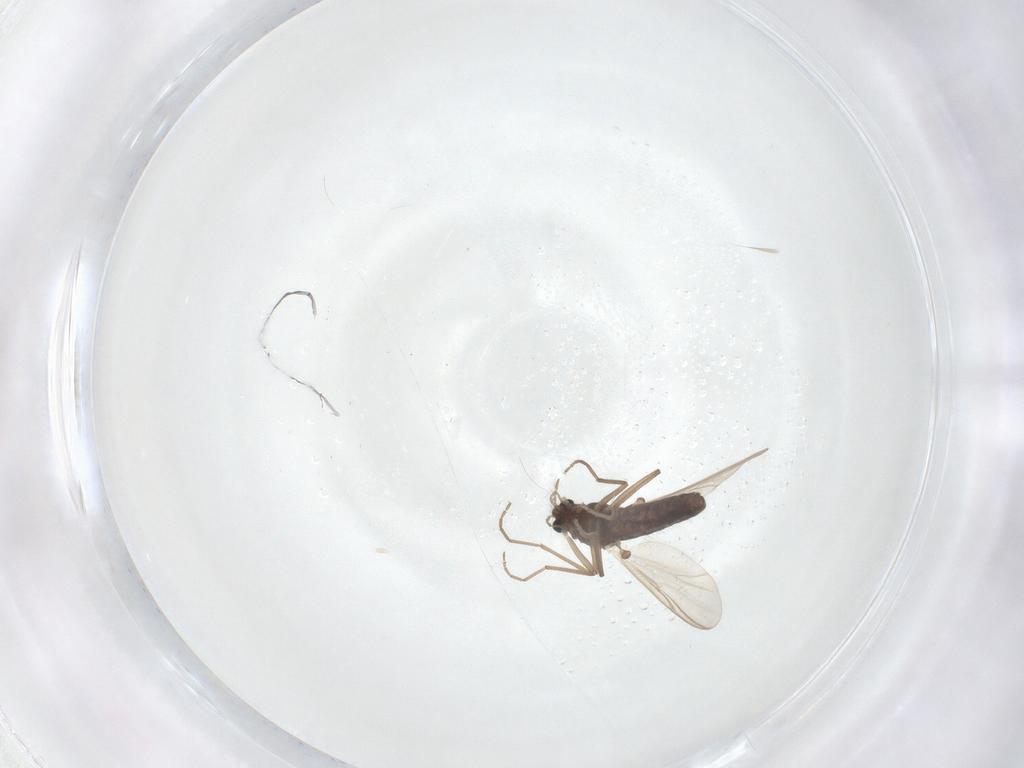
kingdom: Animalia
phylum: Arthropoda
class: Insecta
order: Diptera
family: Chironomidae
